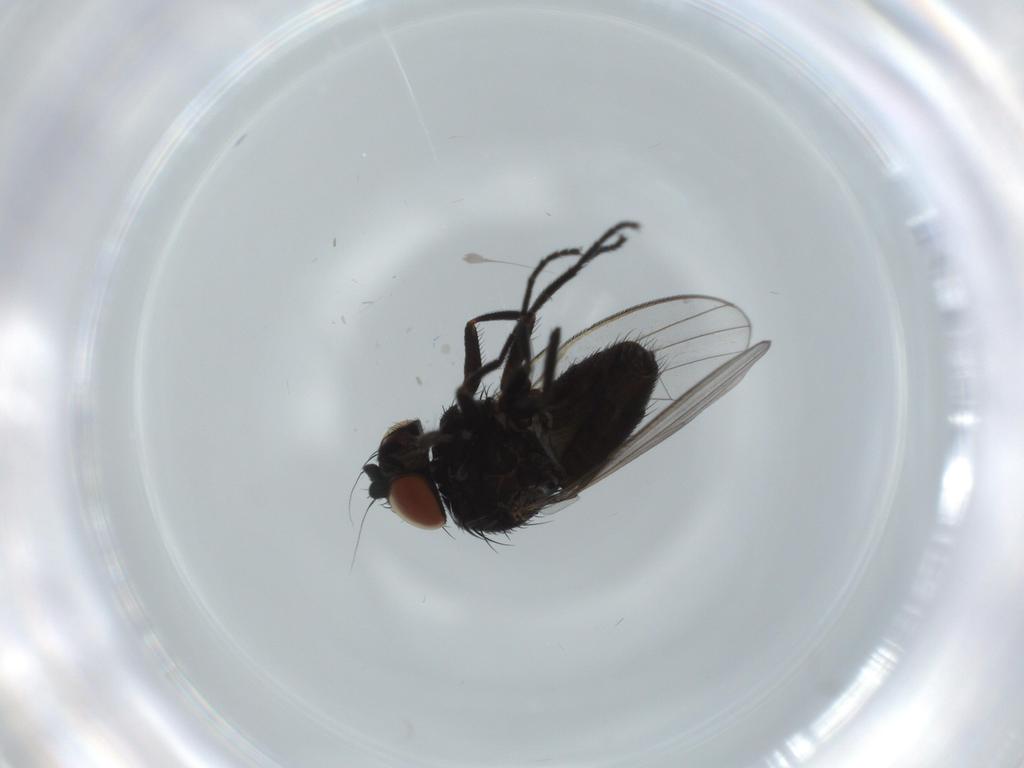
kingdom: Animalia
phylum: Arthropoda
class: Insecta
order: Diptera
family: Milichiidae
